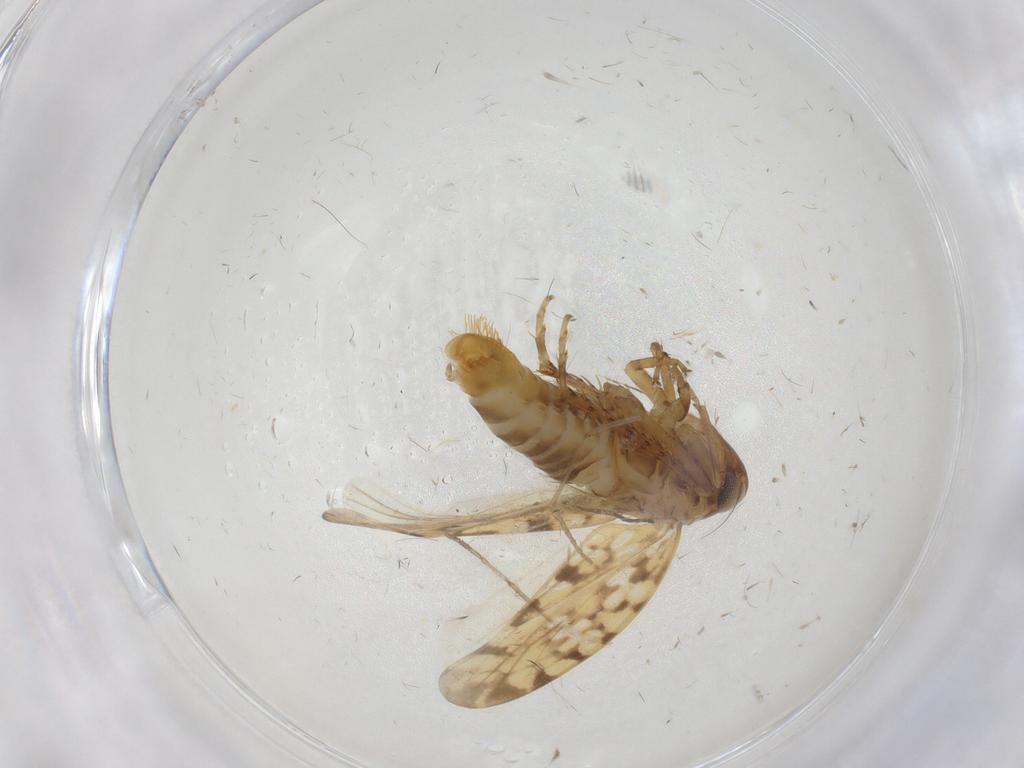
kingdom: Animalia
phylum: Arthropoda
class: Insecta
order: Hemiptera
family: Cicadellidae
